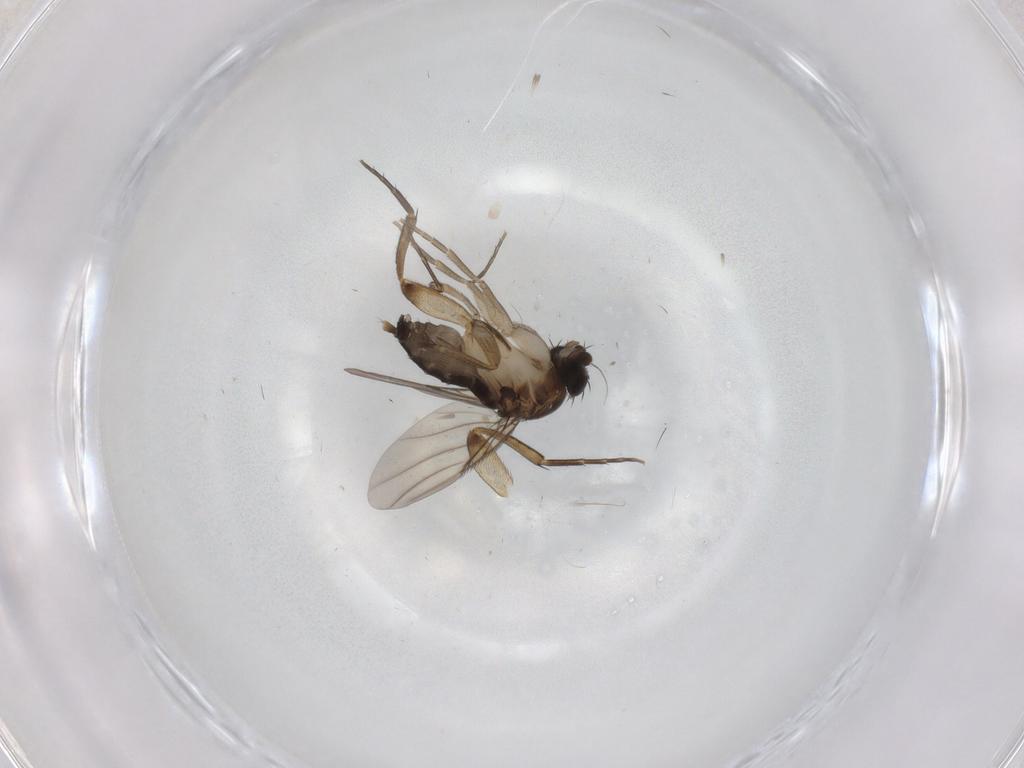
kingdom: Animalia
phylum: Arthropoda
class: Insecta
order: Diptera
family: Phoridae
